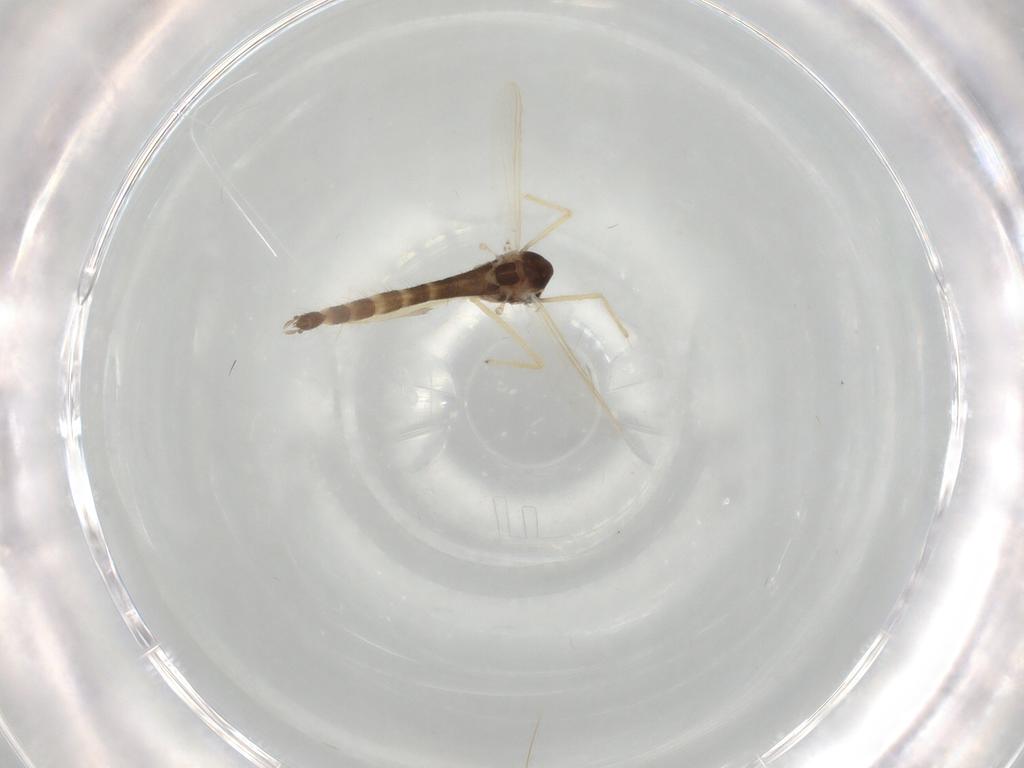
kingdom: Animalia
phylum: Arthropoda
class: Insecta
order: Diptera
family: Chironomidae
